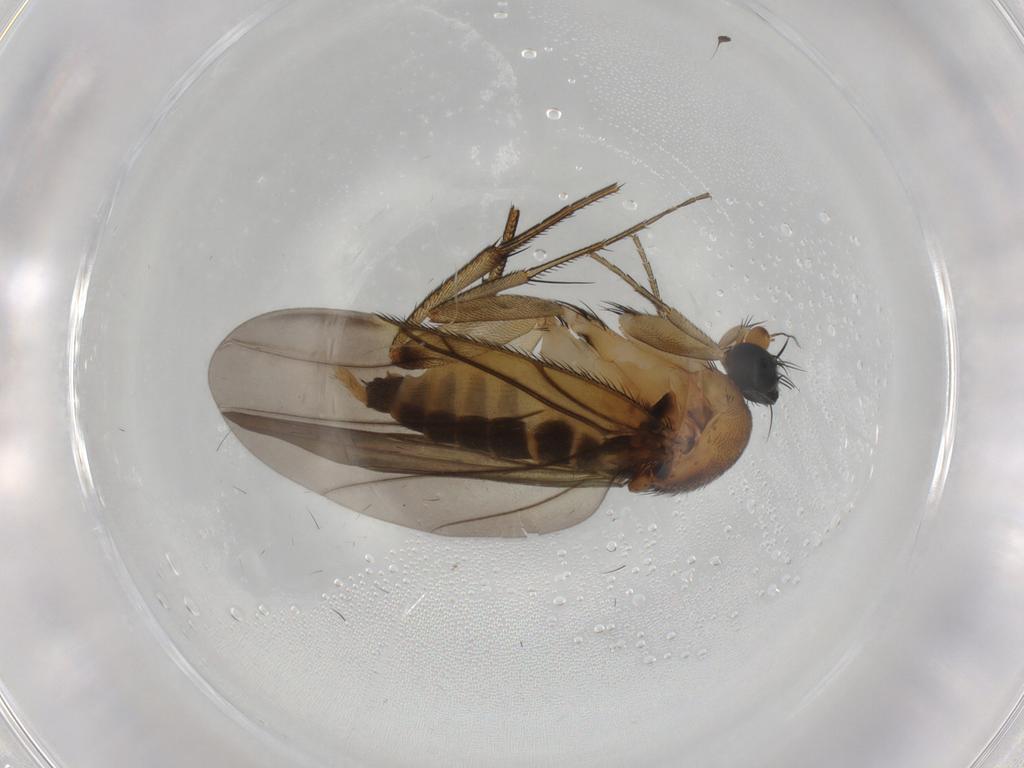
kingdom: Animalia
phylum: Arthropoda
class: Insecta
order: Diptera
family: Phoridae
